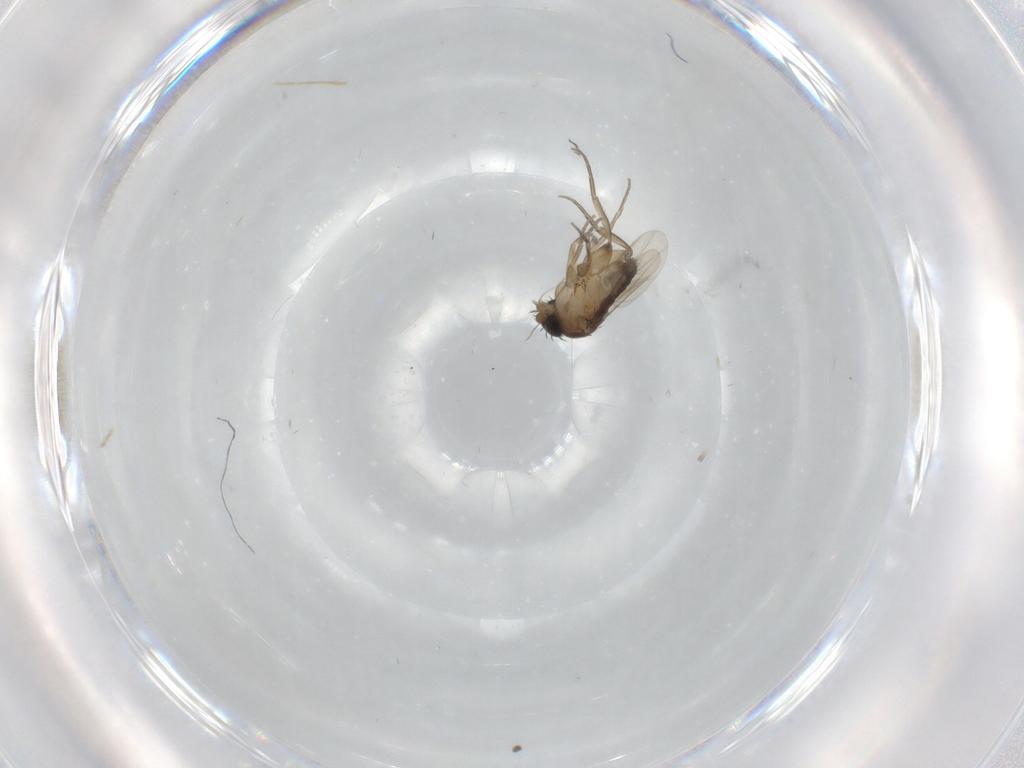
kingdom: Animalia
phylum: Arthropoda
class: Insecta
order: Diptera
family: Phoridae
